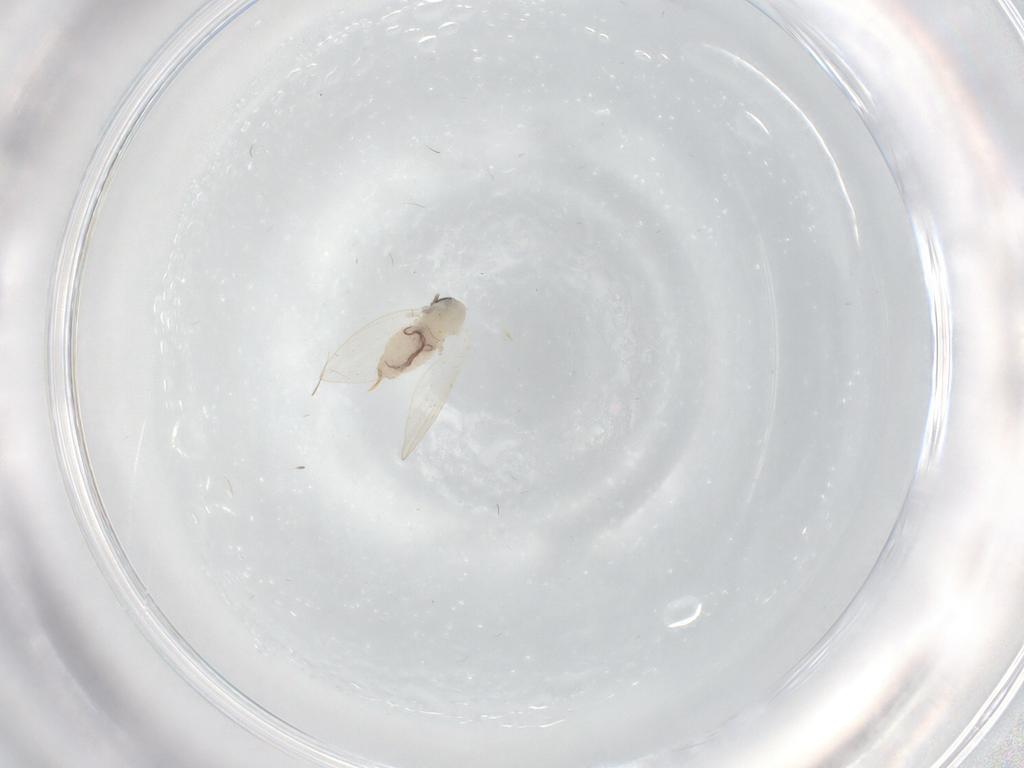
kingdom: Animalia
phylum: Arthropoda
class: Insecta
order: Diptera
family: Psychodidae
